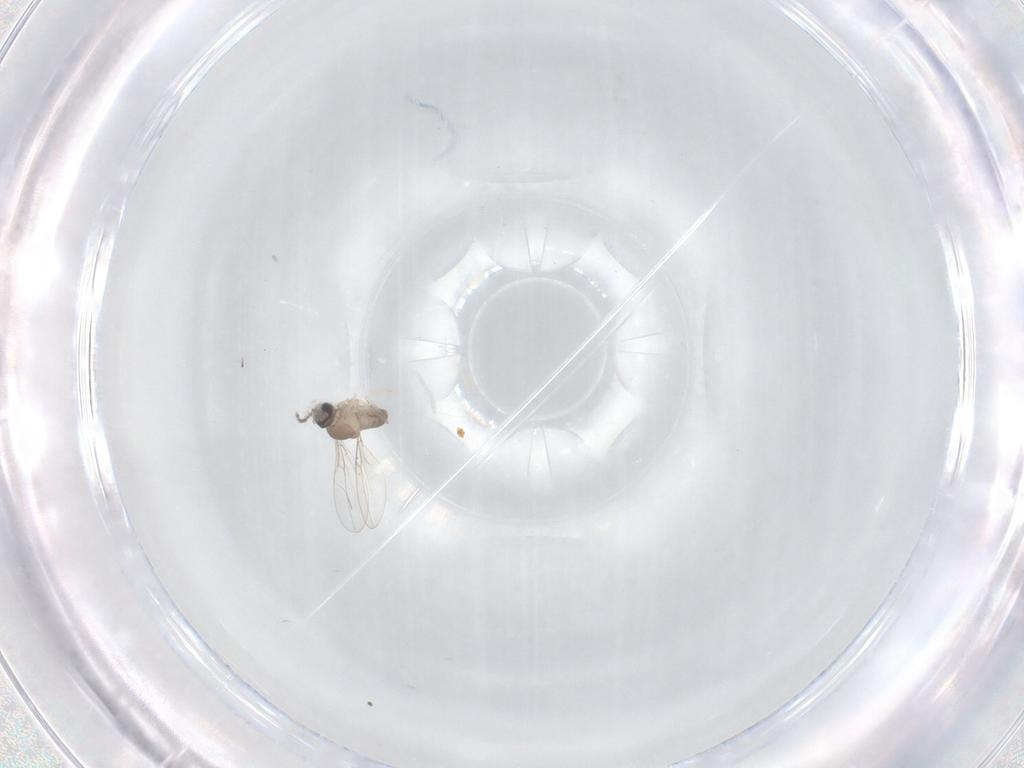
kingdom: Animalia
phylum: Arthropoda
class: Insecta
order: Diptera
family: Cecidomyiidae
